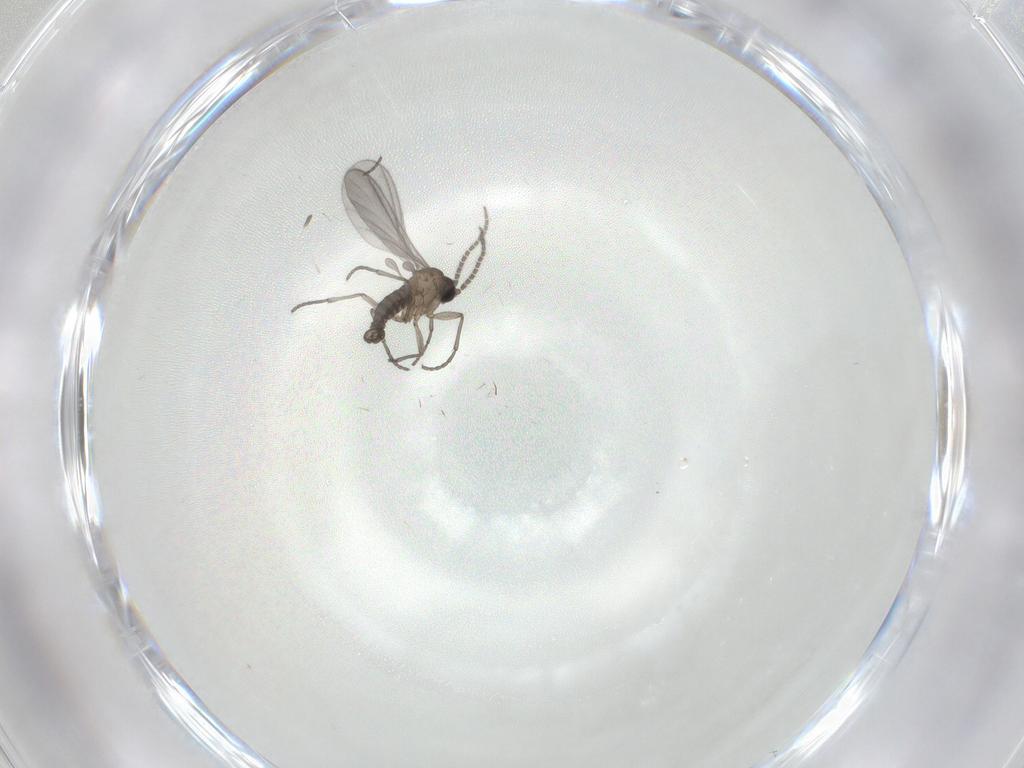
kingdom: Animalia
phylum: Arthropoda
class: Insecta
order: Diptera
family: Sciaridae
